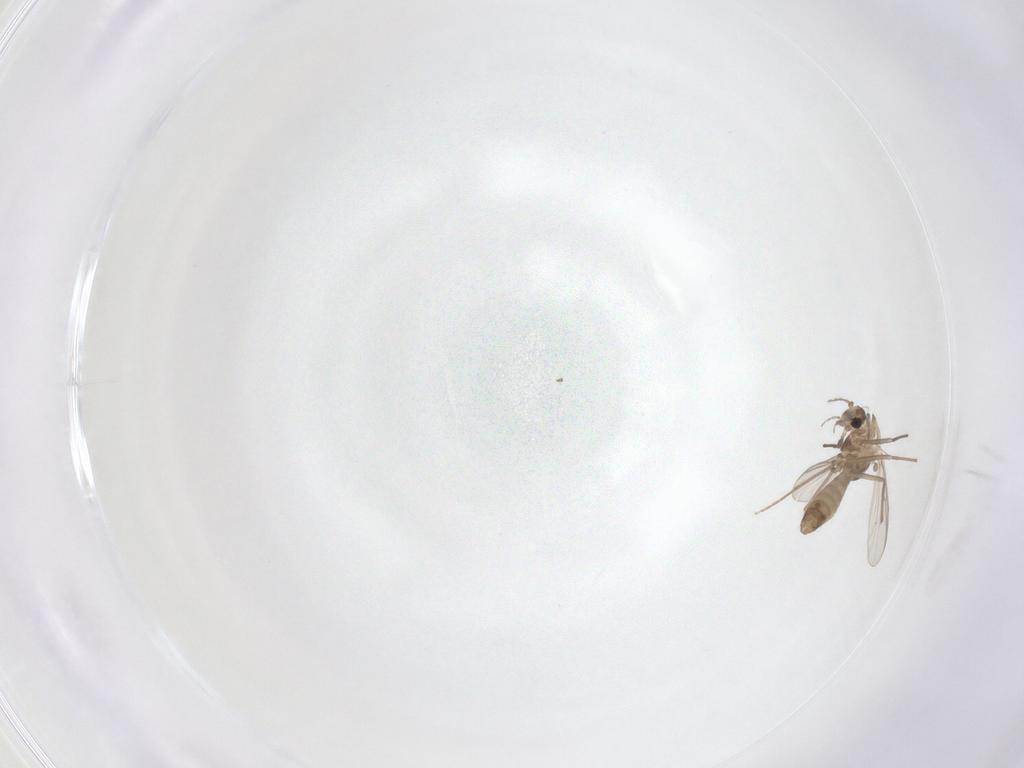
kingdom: Animalia
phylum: Arthropoda
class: Insecta
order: Diptera
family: Chironomidae
